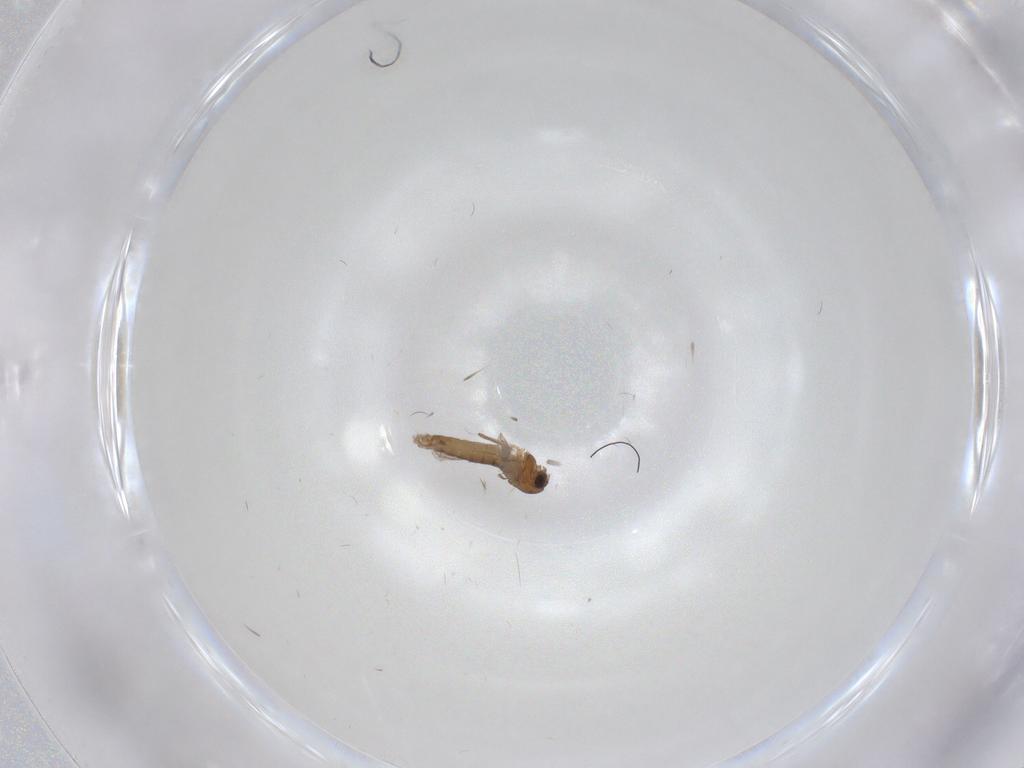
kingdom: Animalia
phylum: Arthropoda
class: Insecta
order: Diptera
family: Chironomidae
